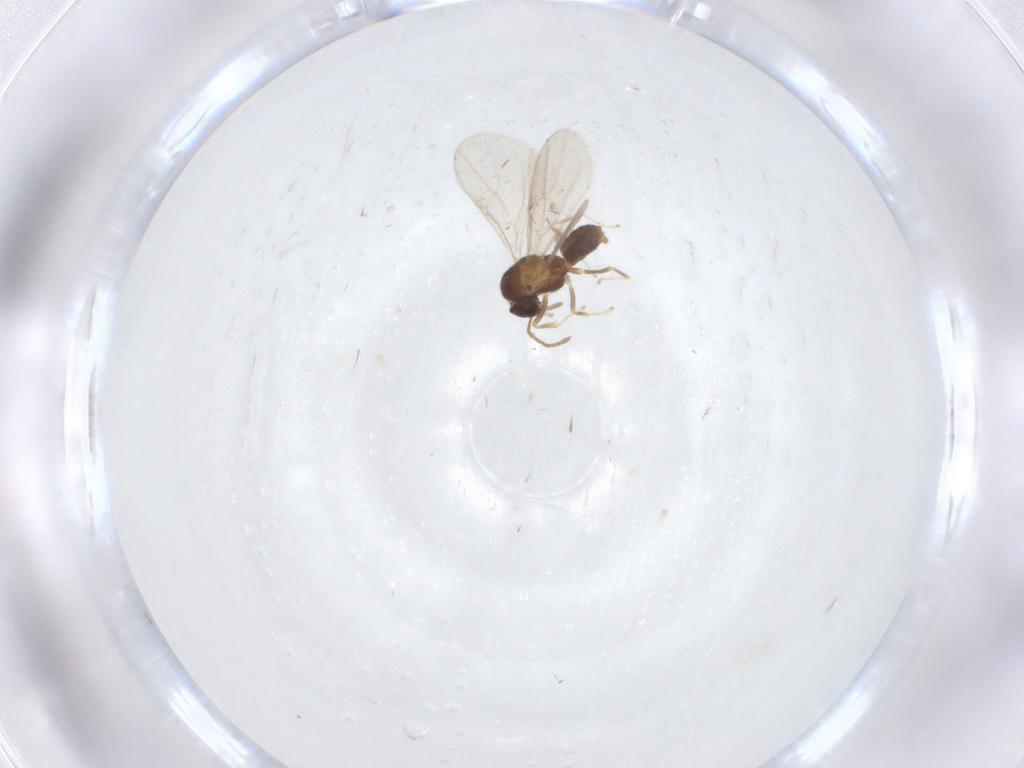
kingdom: Animalia
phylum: Arthropoda
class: Insecta
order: Hymenoptera
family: Formicidae
